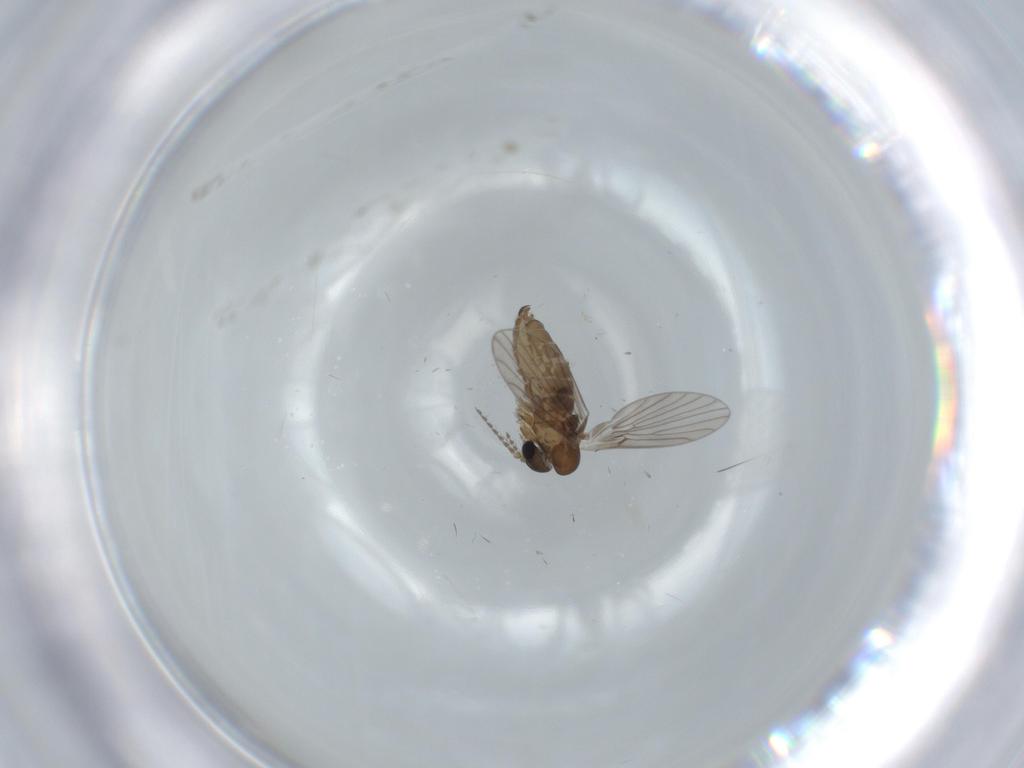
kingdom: Animalia
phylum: Arthropoda
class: Insecta
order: Diptera
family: Psychodidae
